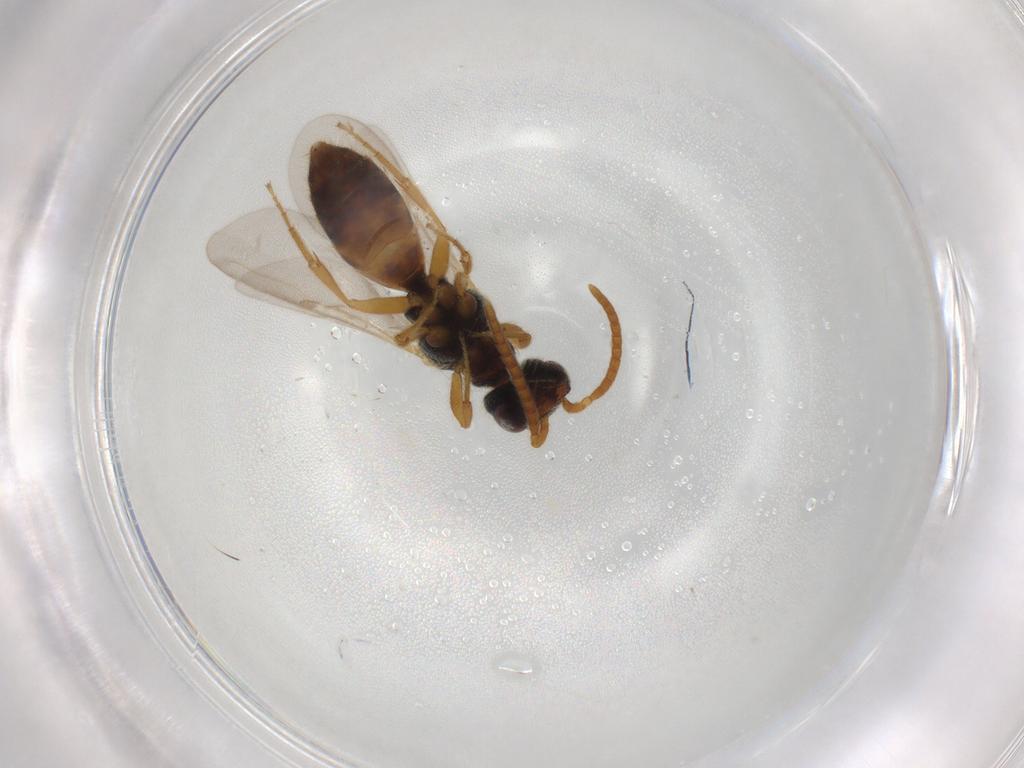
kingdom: Animalia
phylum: Arthropoda
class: Insecta
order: Hymenoptera
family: Bethylidae
